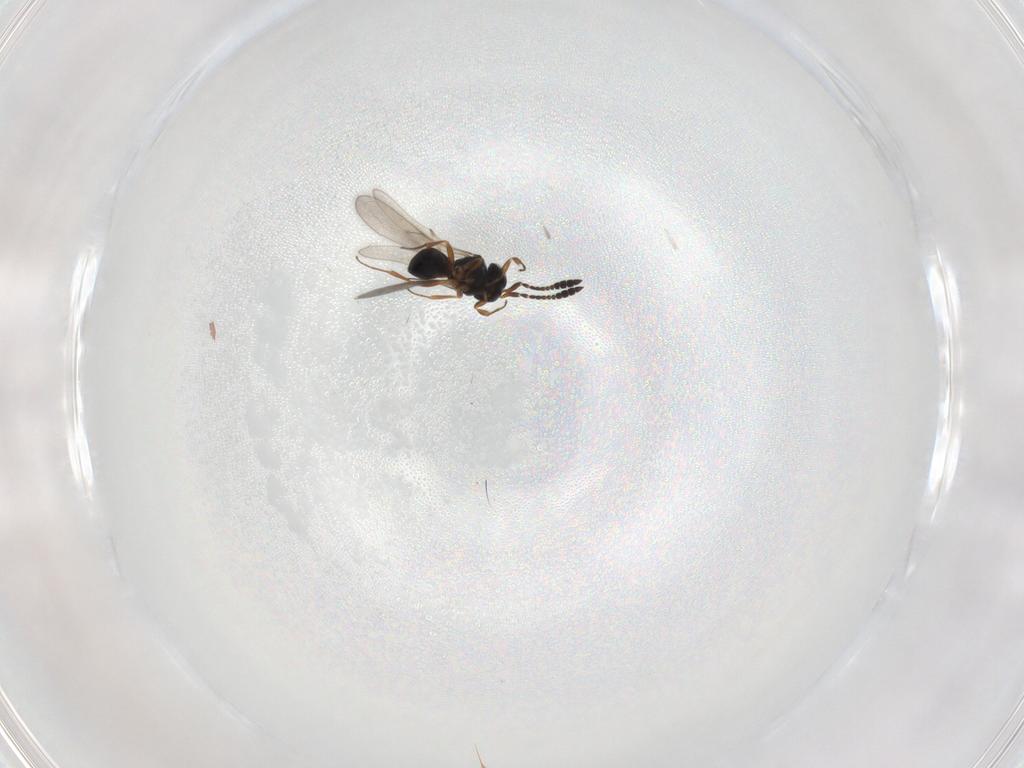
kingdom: Animalia
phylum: Arthropoda
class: Insecta
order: Hymenoptera
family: Scelionidae
